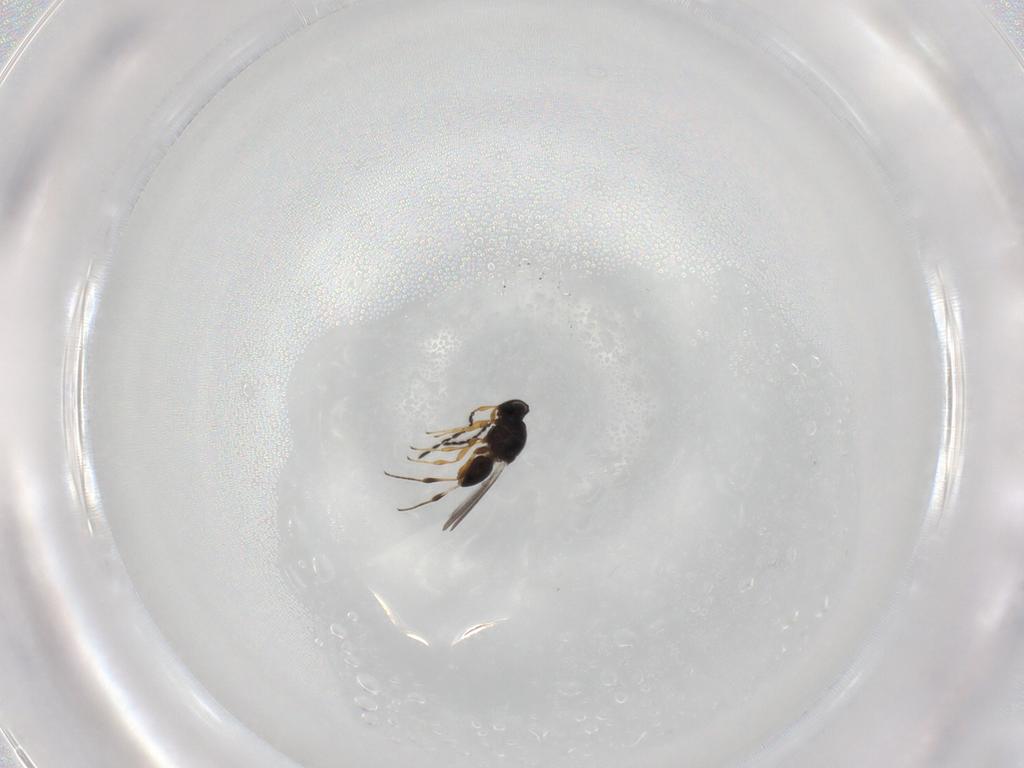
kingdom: Animalia
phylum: Arthropoda
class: Insecta
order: Hymenoptera
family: Platygastridae
